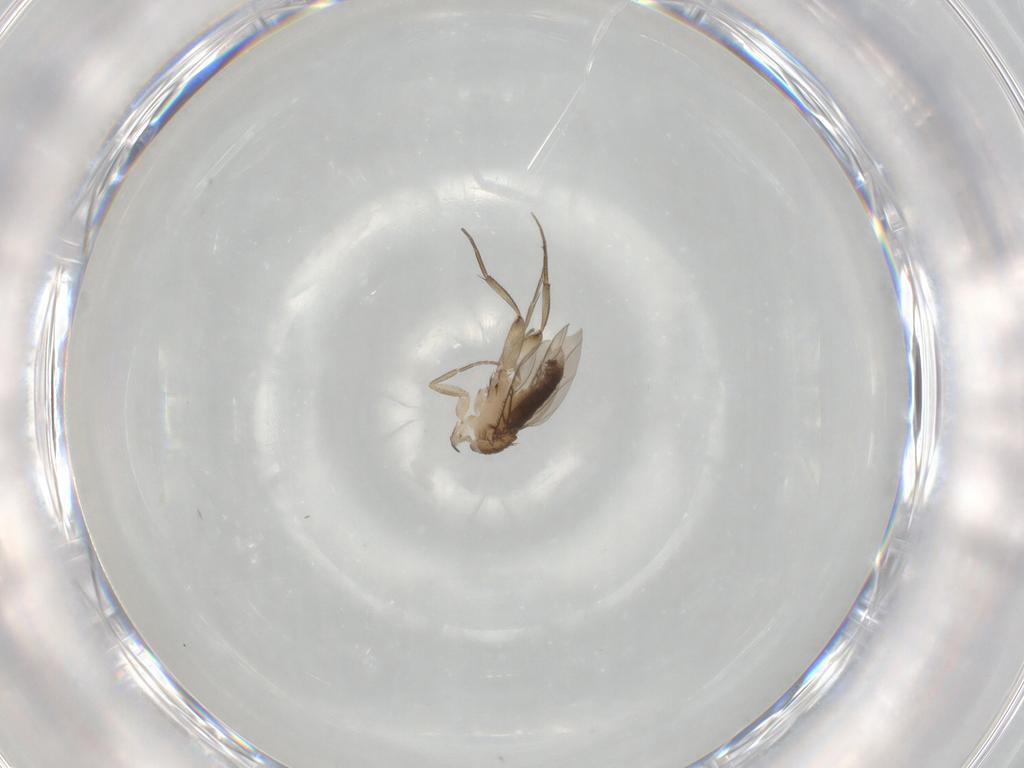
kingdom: Animalia
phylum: Arthropoda
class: Insecta
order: Diptera
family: Phoridae
